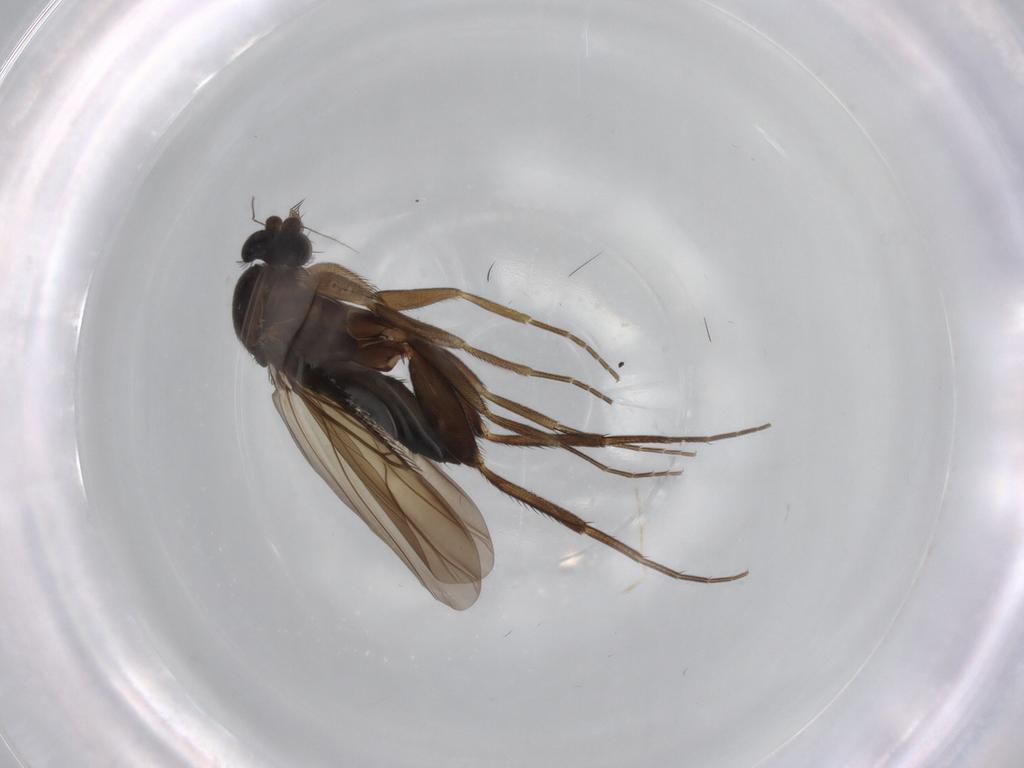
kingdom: Animalia
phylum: Arthropoda
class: Insecta
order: Diptera
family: Phoridae
